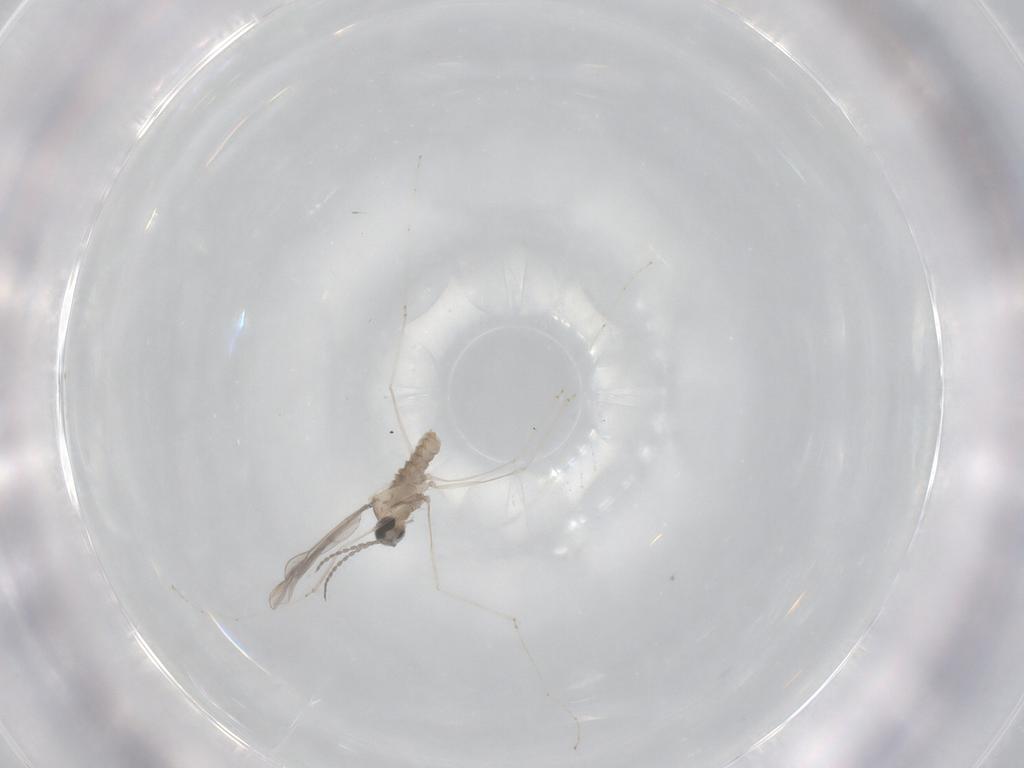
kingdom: Animalia
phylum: Arthropoda
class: Insecta
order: Diptera
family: Cecidomyiidae
